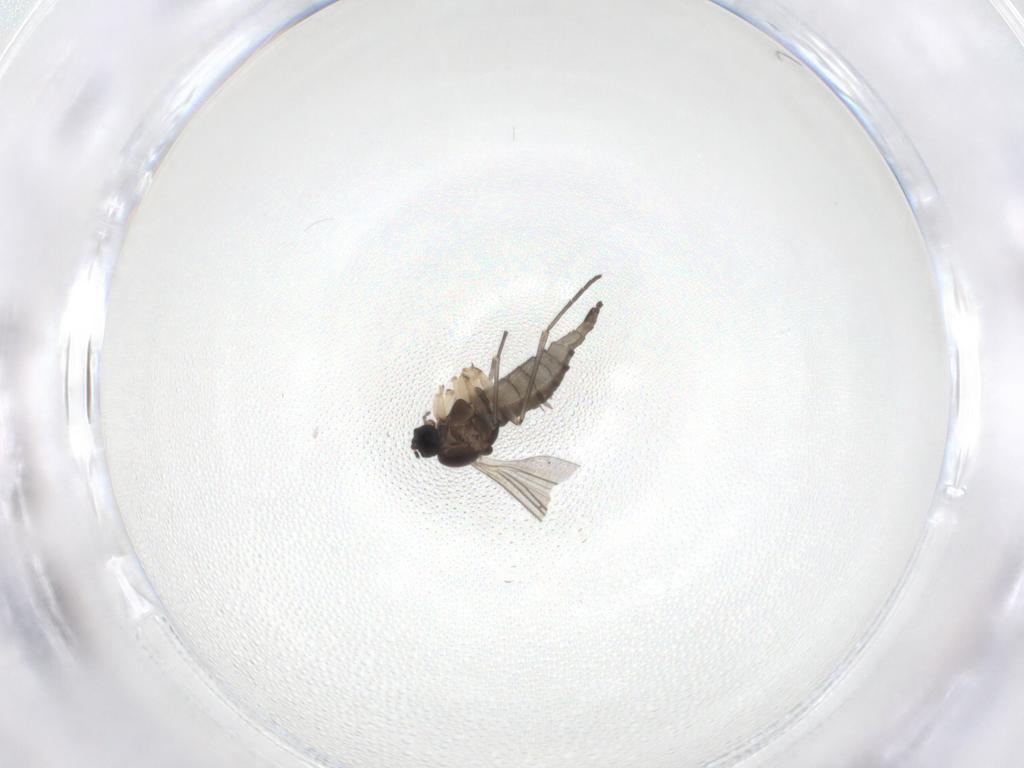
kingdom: Animalia
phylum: Arthropoda
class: Insecta
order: Diptera
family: Sciaridae
